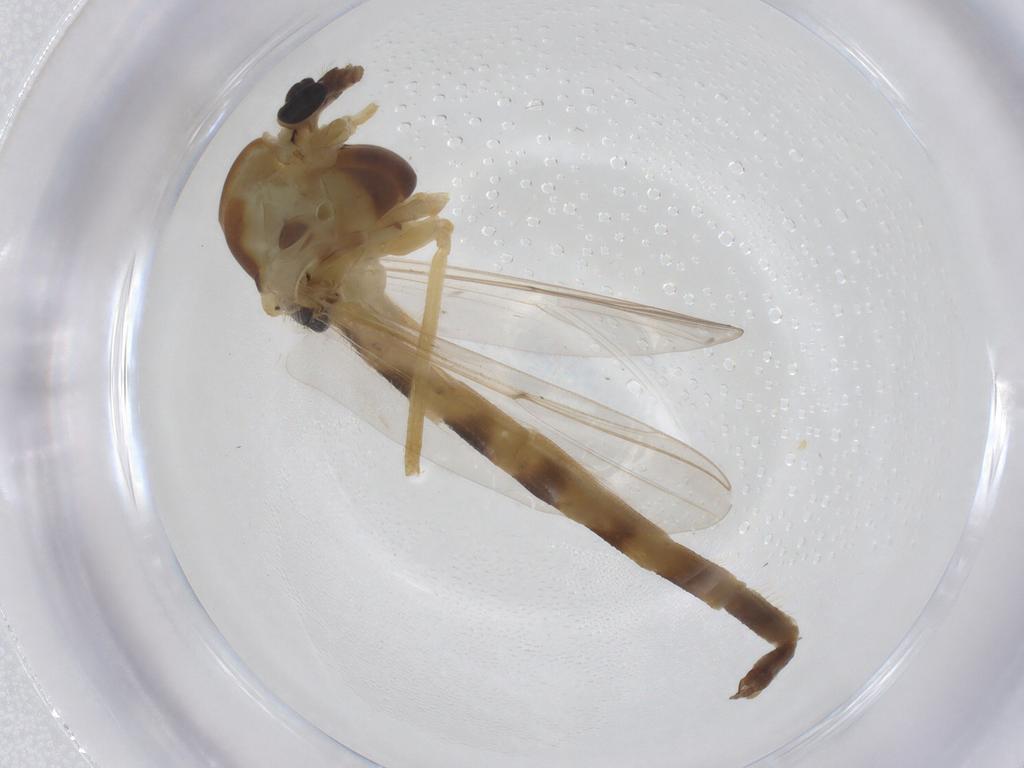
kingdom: Animalia
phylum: Arthropoda
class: Insecta
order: Diptera
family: Chironomidae
